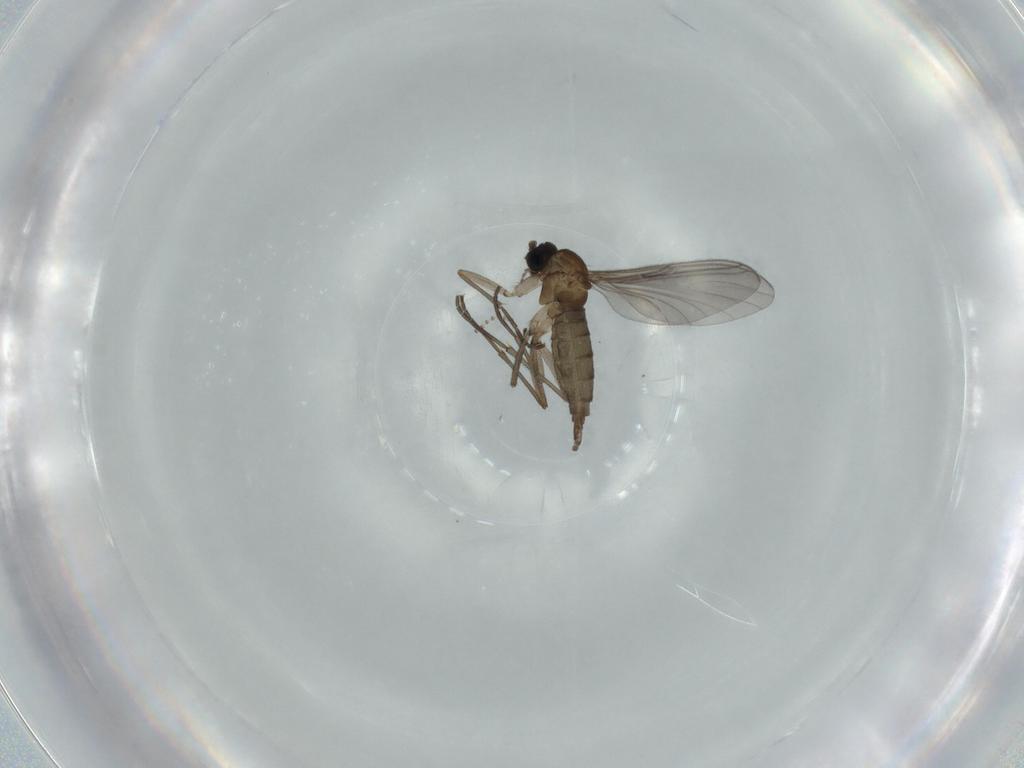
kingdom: Animalia
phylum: Arthropoda
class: Insecta
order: Diptera
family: Sciaridae
